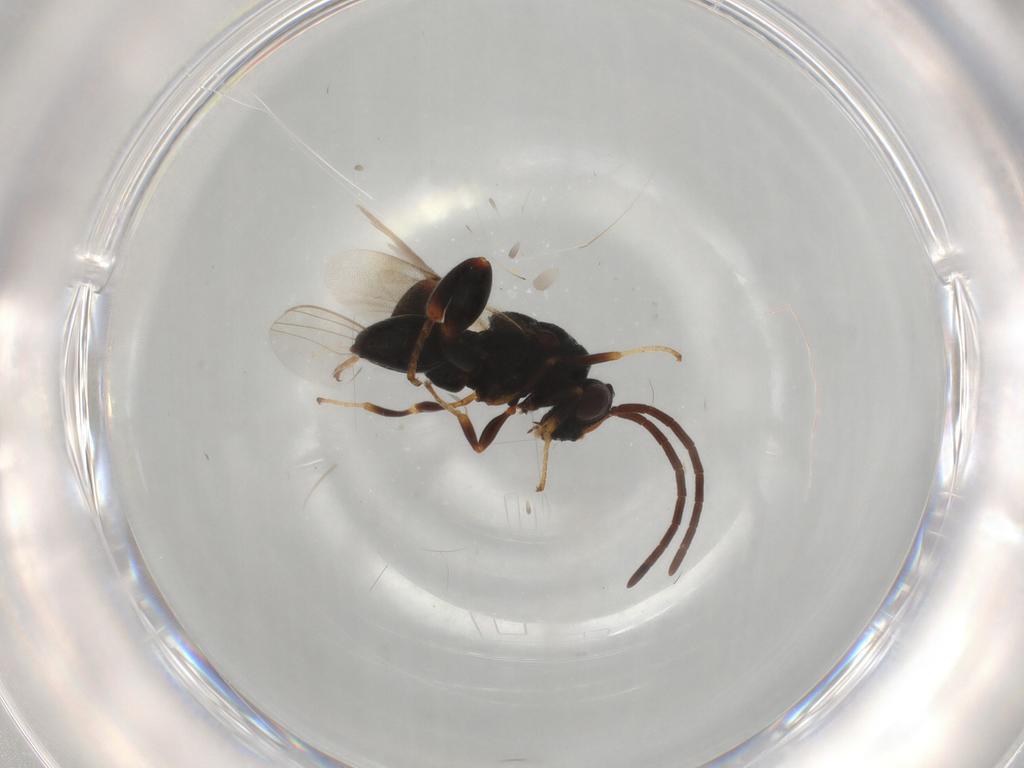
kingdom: Animalia
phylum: Arthropoda
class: Insecta
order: Hymenoptera
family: Chalcididae
